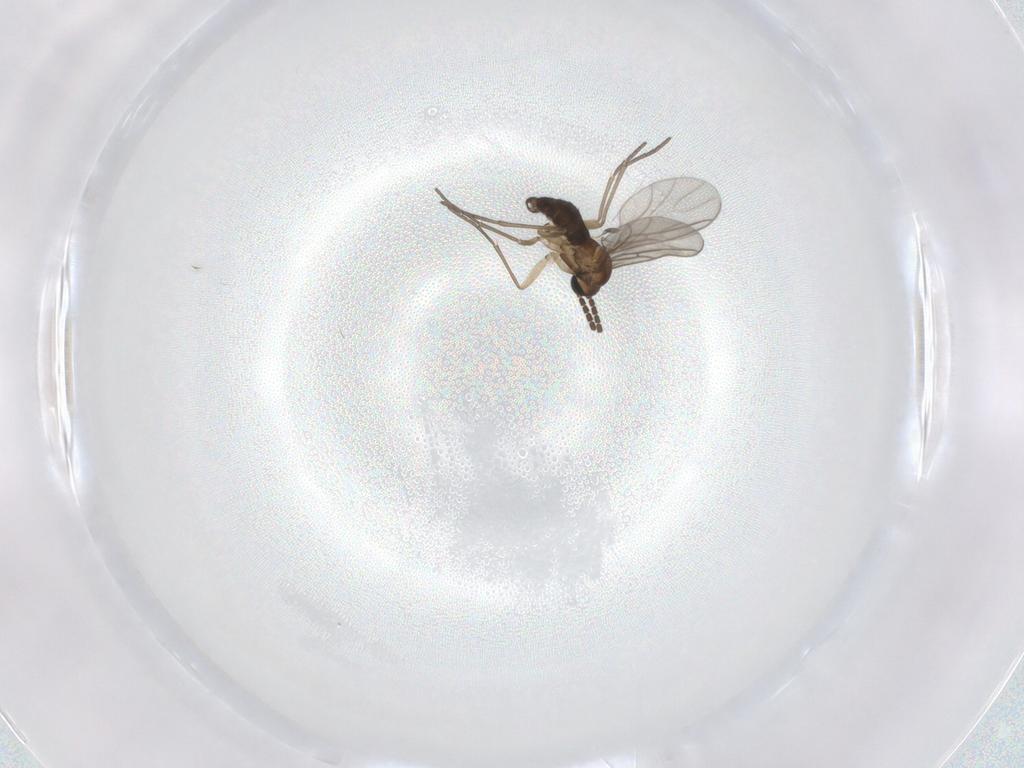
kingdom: Animalia
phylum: Arthropoda
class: Insecta
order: Diptera
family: Sciaridae
